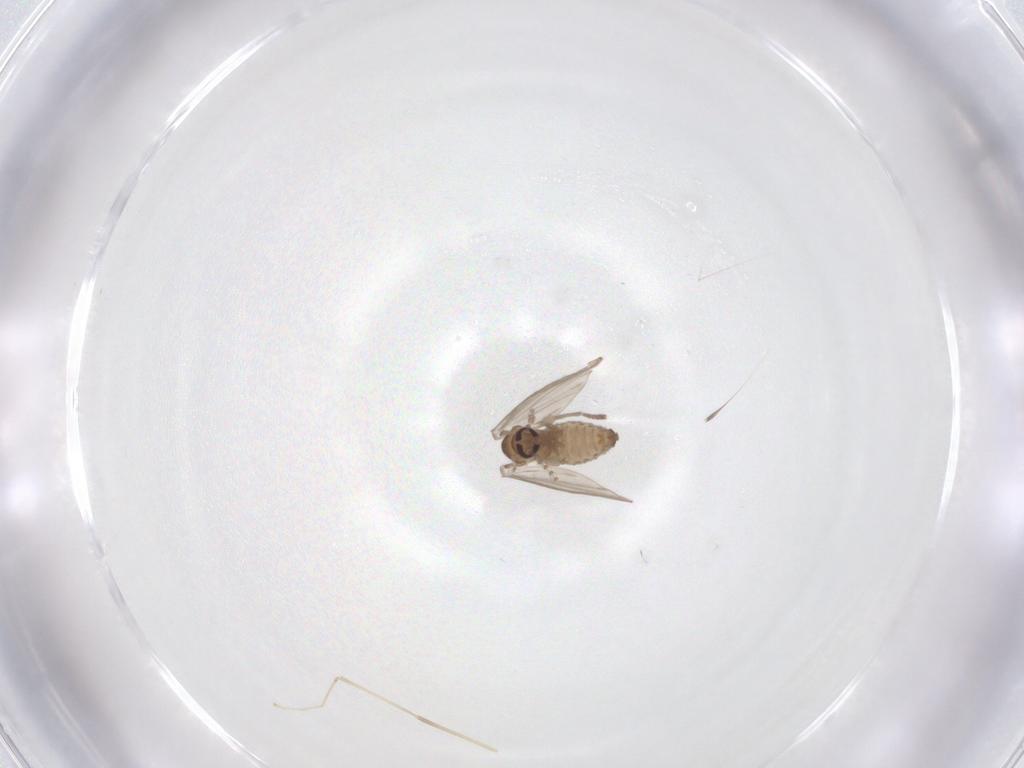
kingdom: Animalia
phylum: Arthropoda
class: Insecta
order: Diptera
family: Cecidomyiidae
